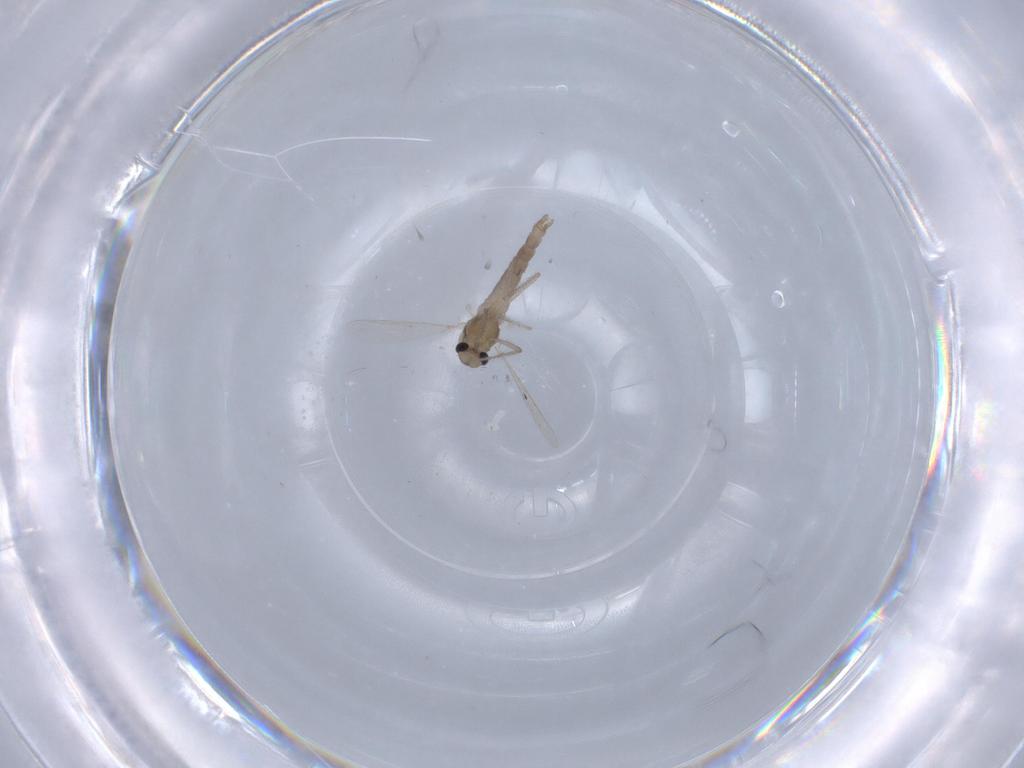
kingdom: Animalia
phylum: Arthropoda
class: Insecta
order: Diptera
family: Chironomidae
